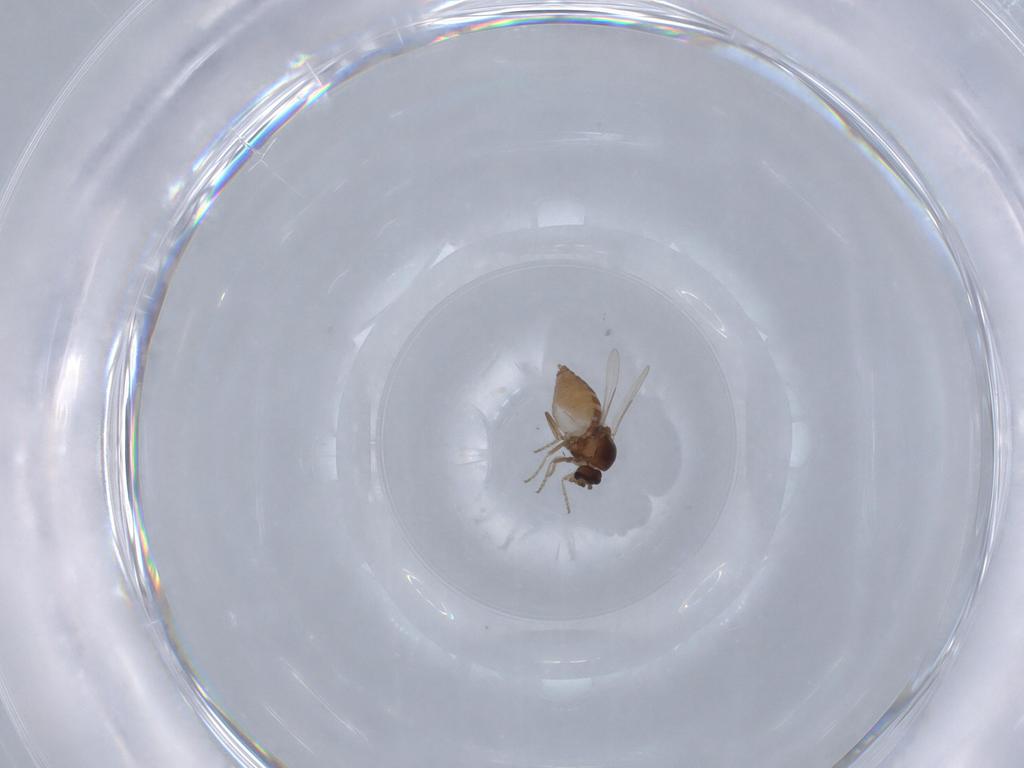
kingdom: Animalia
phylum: Arthropoda
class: Insecta
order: Diptera
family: Ceratopogonidae
